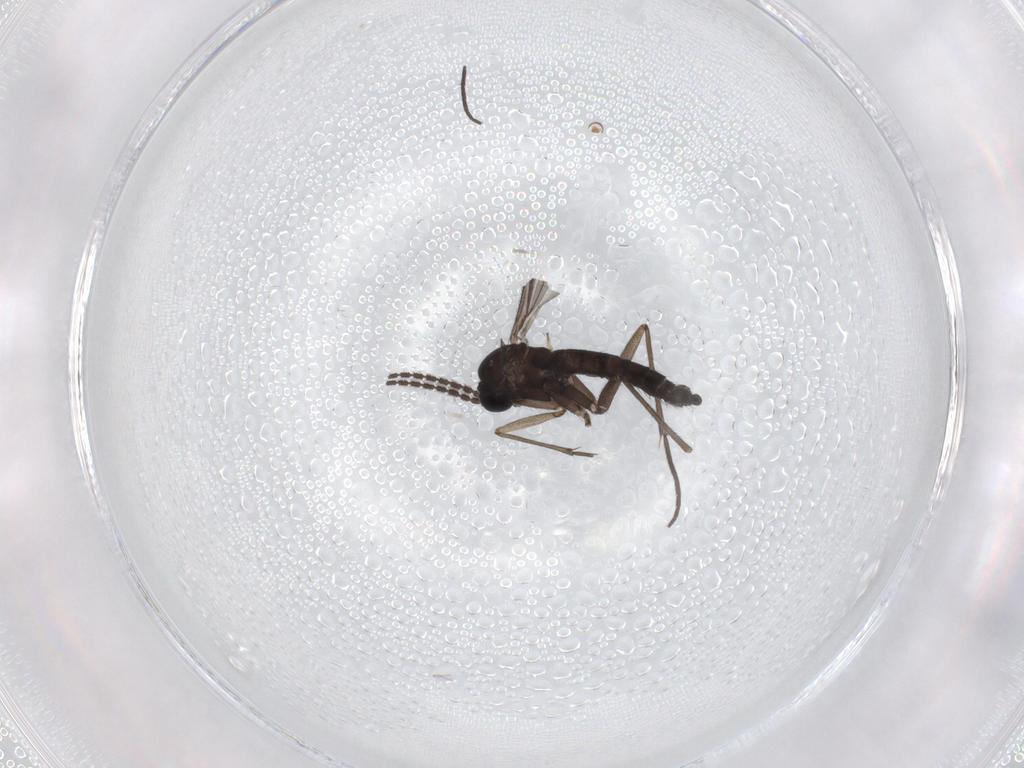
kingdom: Animalia
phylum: Arthropoda
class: Insecta
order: Diptera
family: Sciaridae
